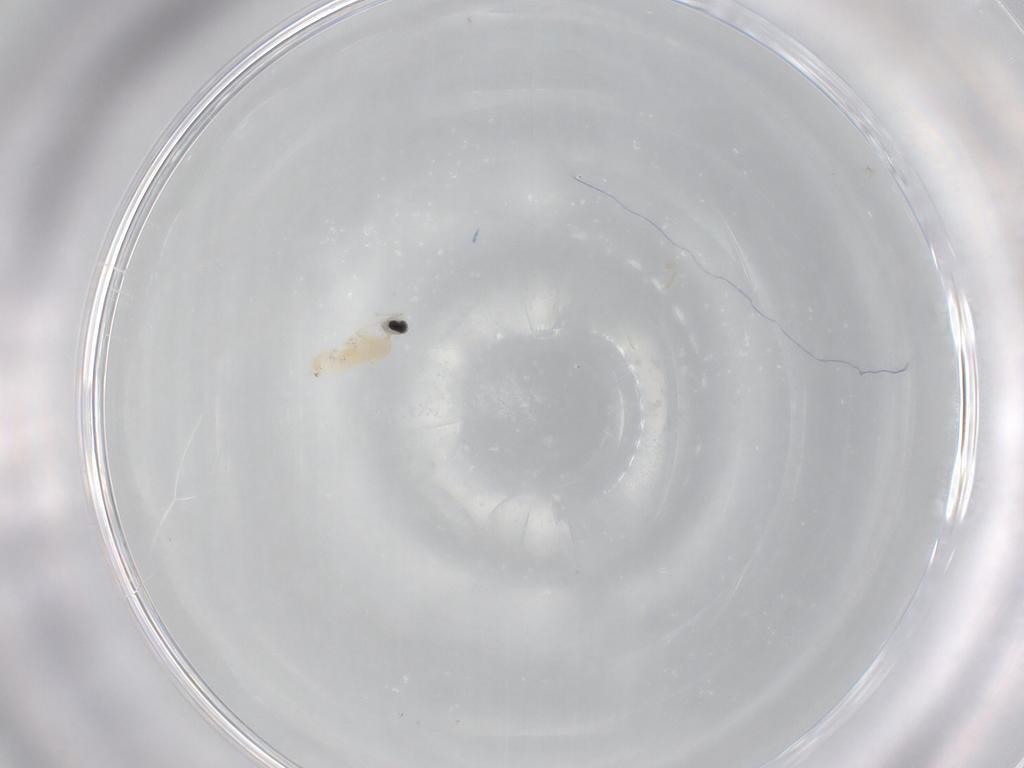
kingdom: Animalia
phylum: Arthropoda
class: Insecta
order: Diptera
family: Cecidomyiidae
